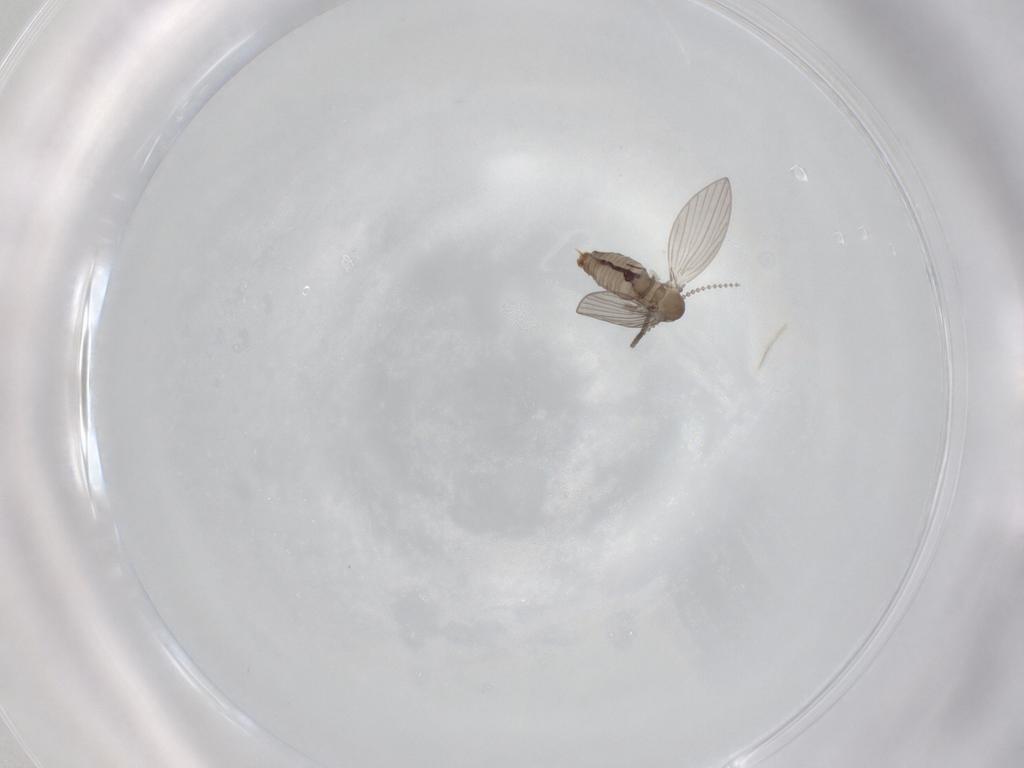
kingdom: Animalia
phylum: Arthropoda
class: Insecta
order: Diptera
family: Psychodidae
